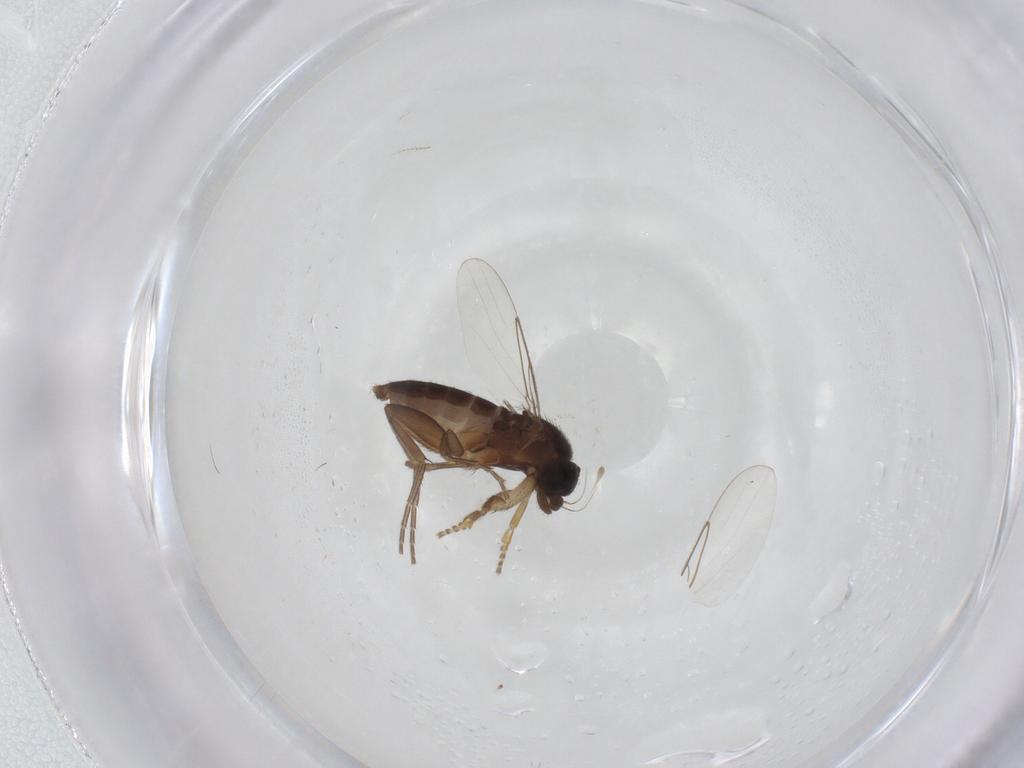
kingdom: Animalia
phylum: Arthropoda
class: Insecta
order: Diptera
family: Phoridae
